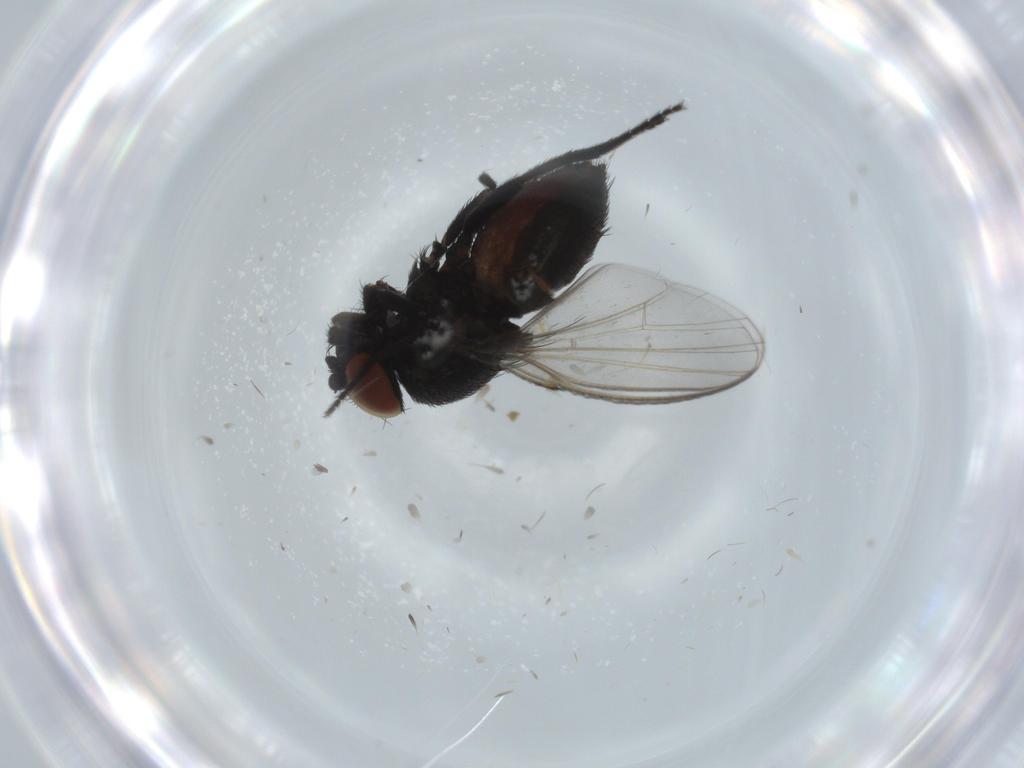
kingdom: Animalia
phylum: Arthropoda
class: Insecta
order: Diptera
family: Milichiidae
